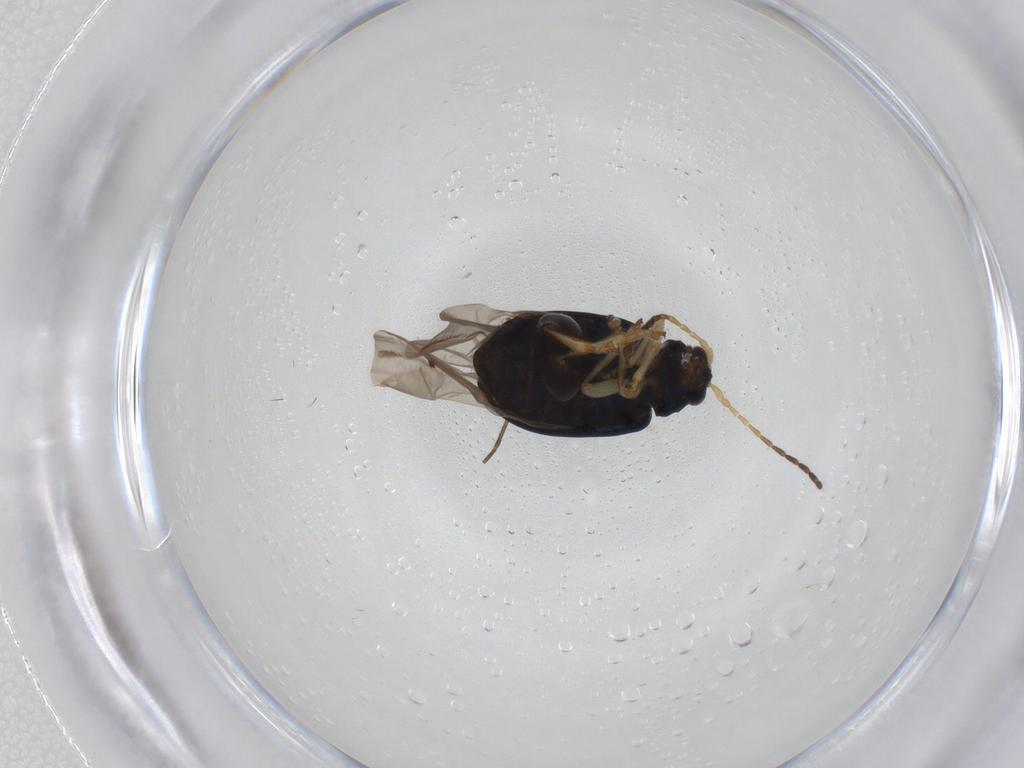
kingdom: Animalia
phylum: Arthropoda
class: Insecta
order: Coleoptera
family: Chrysomelidae
